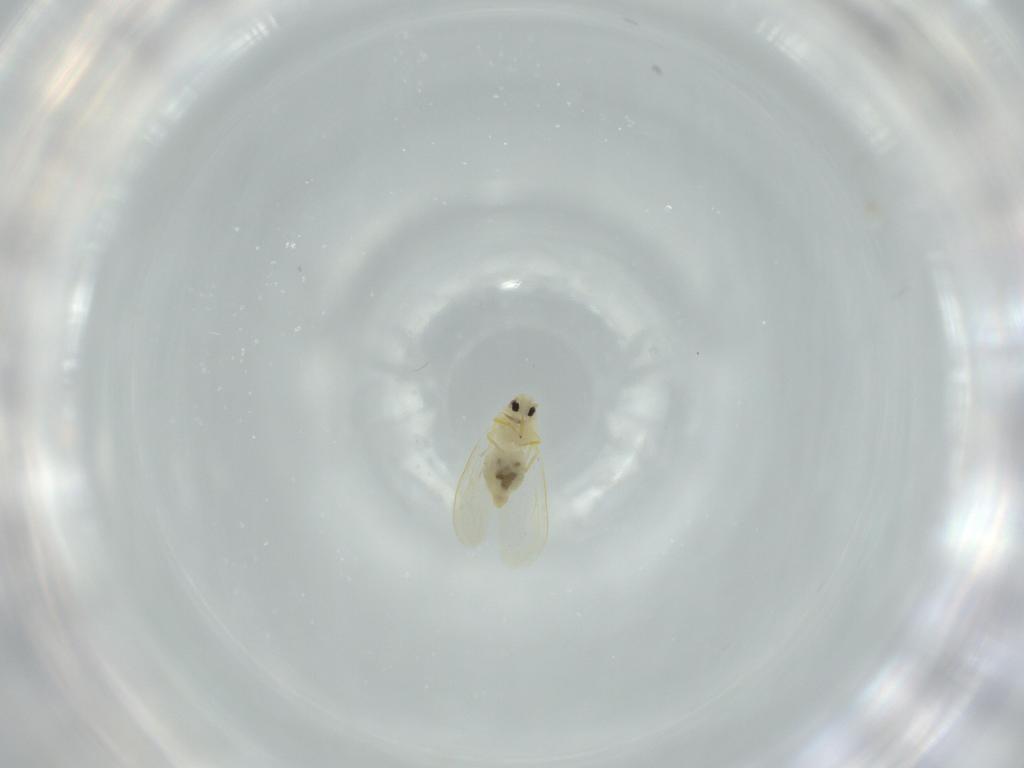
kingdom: Animalia
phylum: Arthropoda
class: Insecta
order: Hemiptera
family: Aleyrodidae
